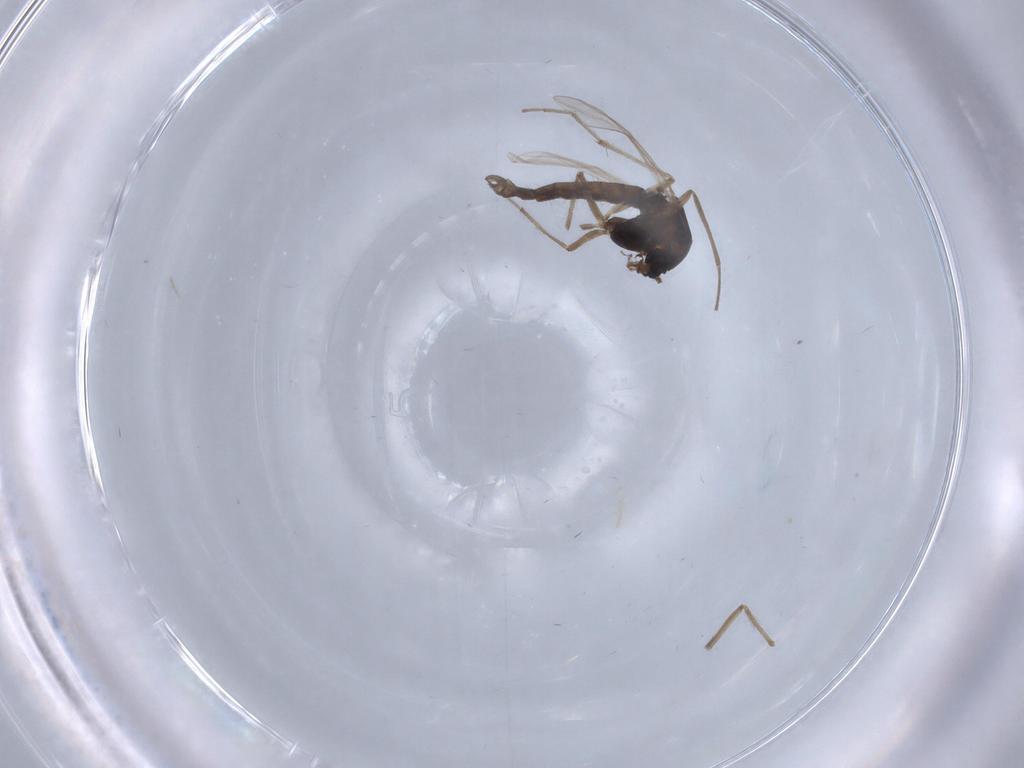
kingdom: Animalia
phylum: Arthropoda
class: Insecta
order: Diptera
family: Chironomidae
